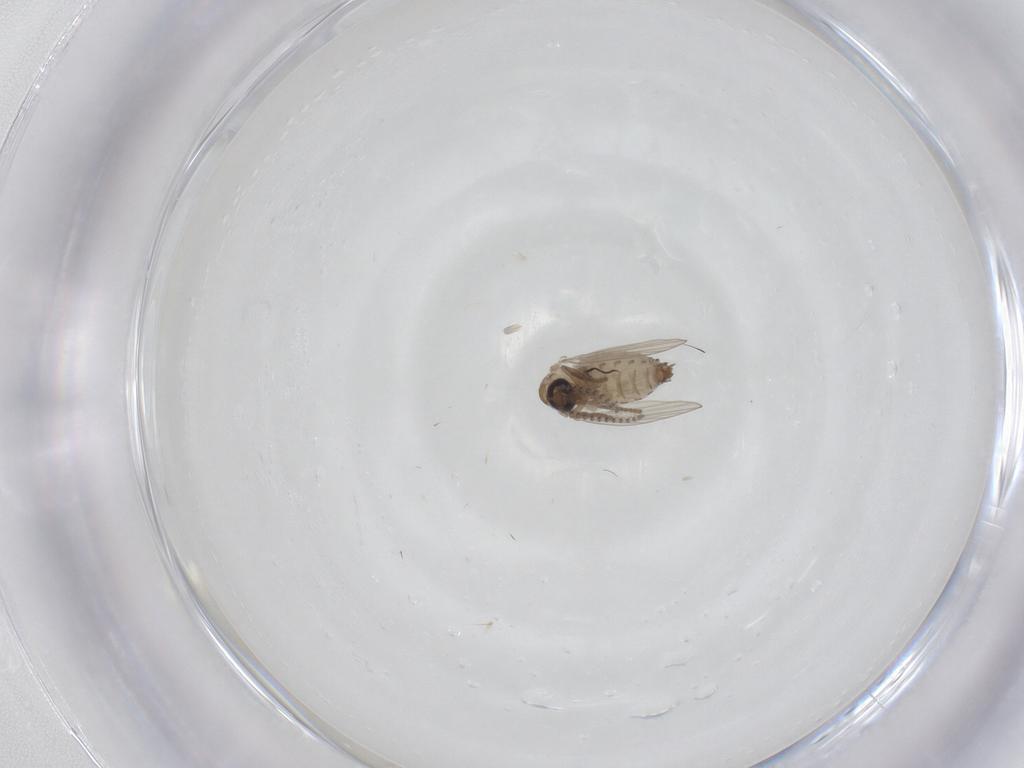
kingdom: Animalia
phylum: Arthropoda
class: Insecta
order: Diptera
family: Psychodidae
